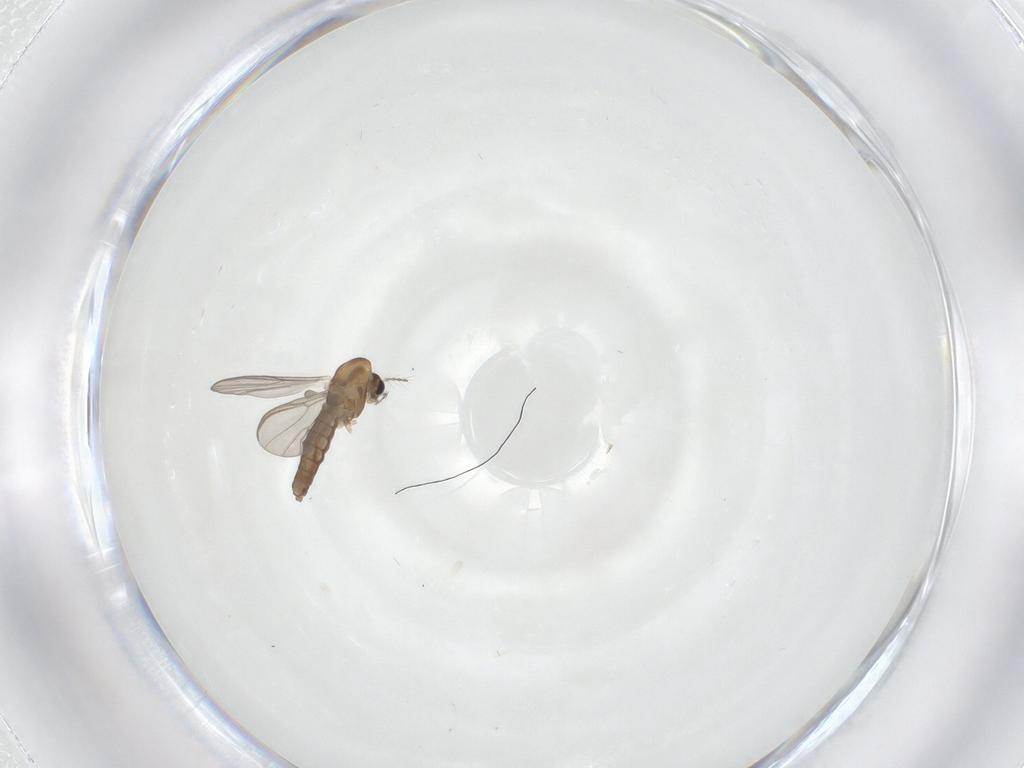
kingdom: Animalia
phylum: Arthropoda
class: Insecta
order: Diptera
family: Chironomidae
